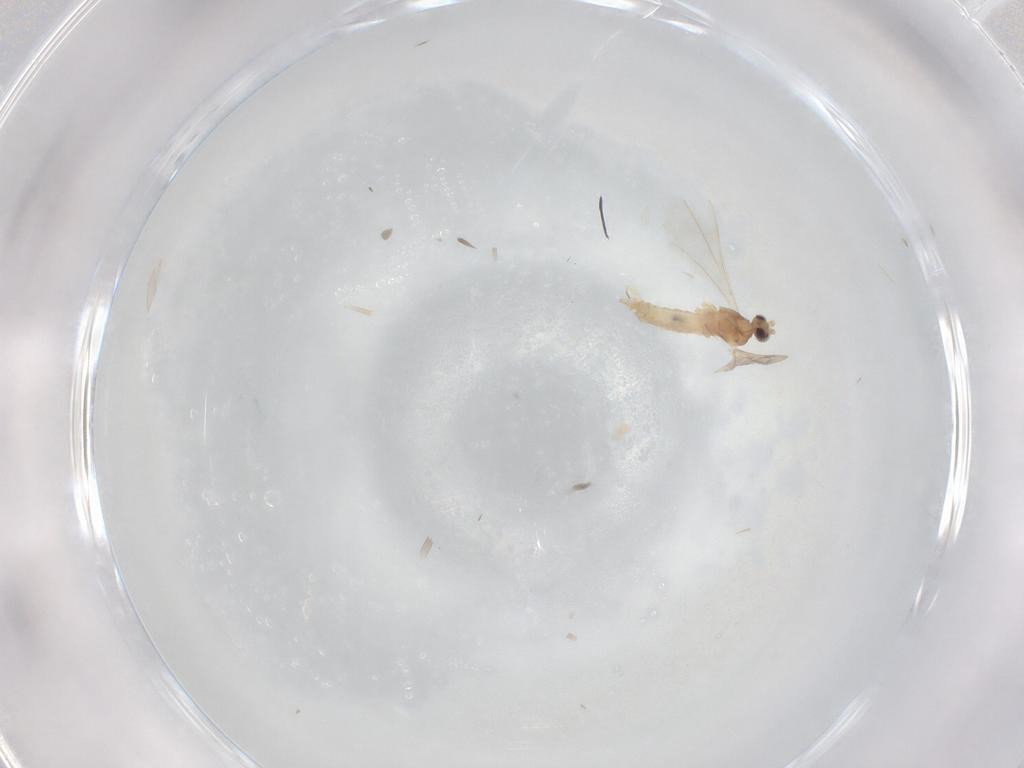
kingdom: Animalia
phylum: Arthropoda
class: Insecta
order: Diptera
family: Cecidomyiidae
